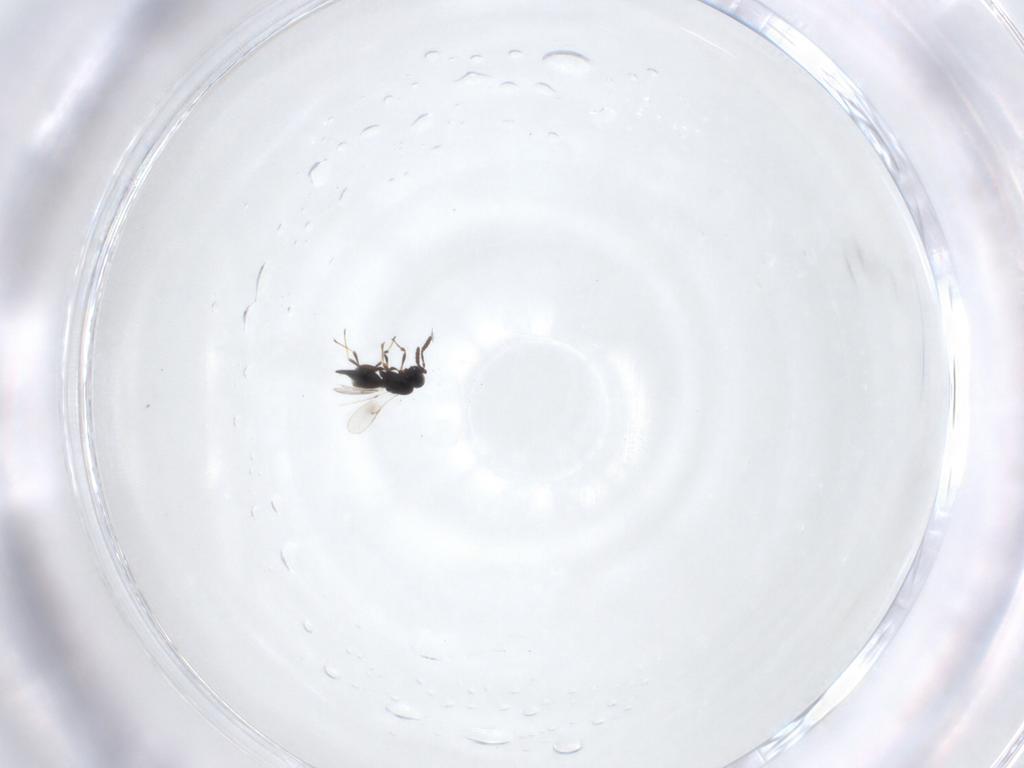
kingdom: Animalia
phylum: Arthropoda
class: Insecta
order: Hymenoptera
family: Scelionidae
